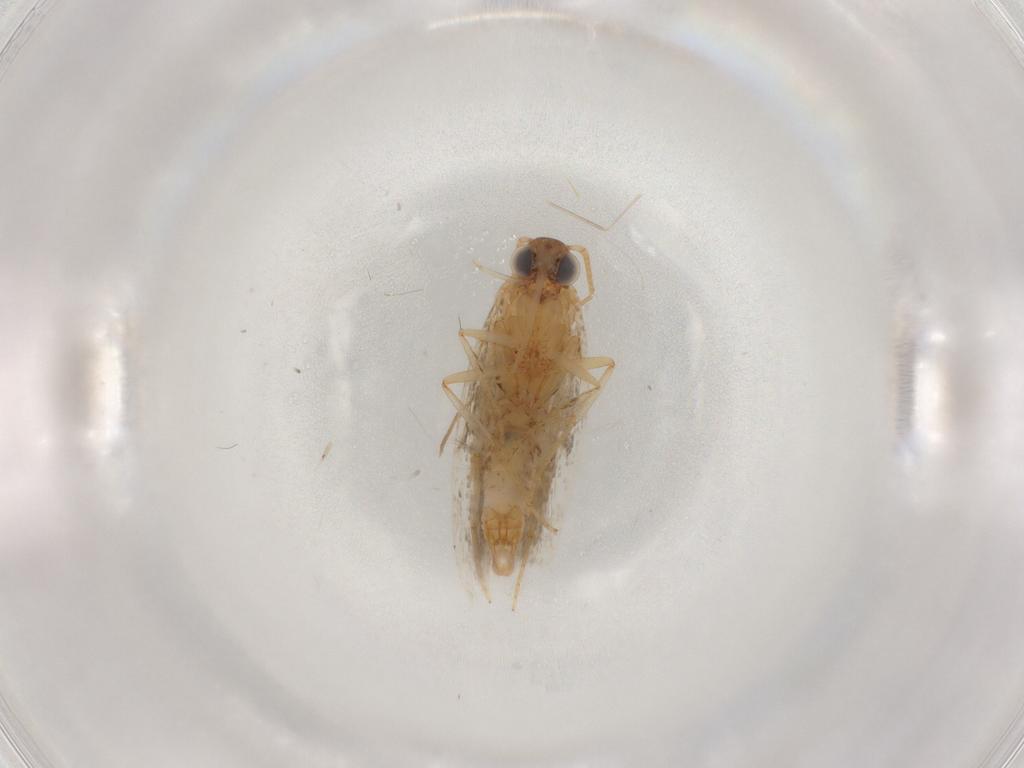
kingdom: Animalia
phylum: Arthropoda
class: Insecta
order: Lepidoptera
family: Plutellidae
